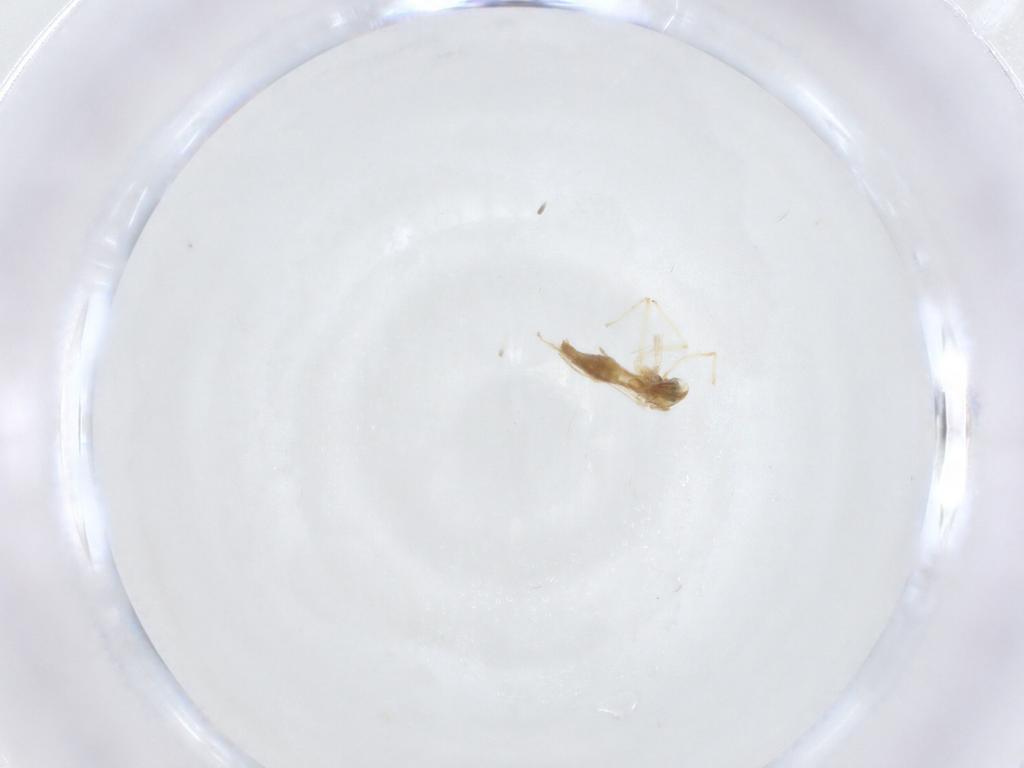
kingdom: Animalia
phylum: Arthropoda
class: Insecta
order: Diptera
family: Chironomidae
